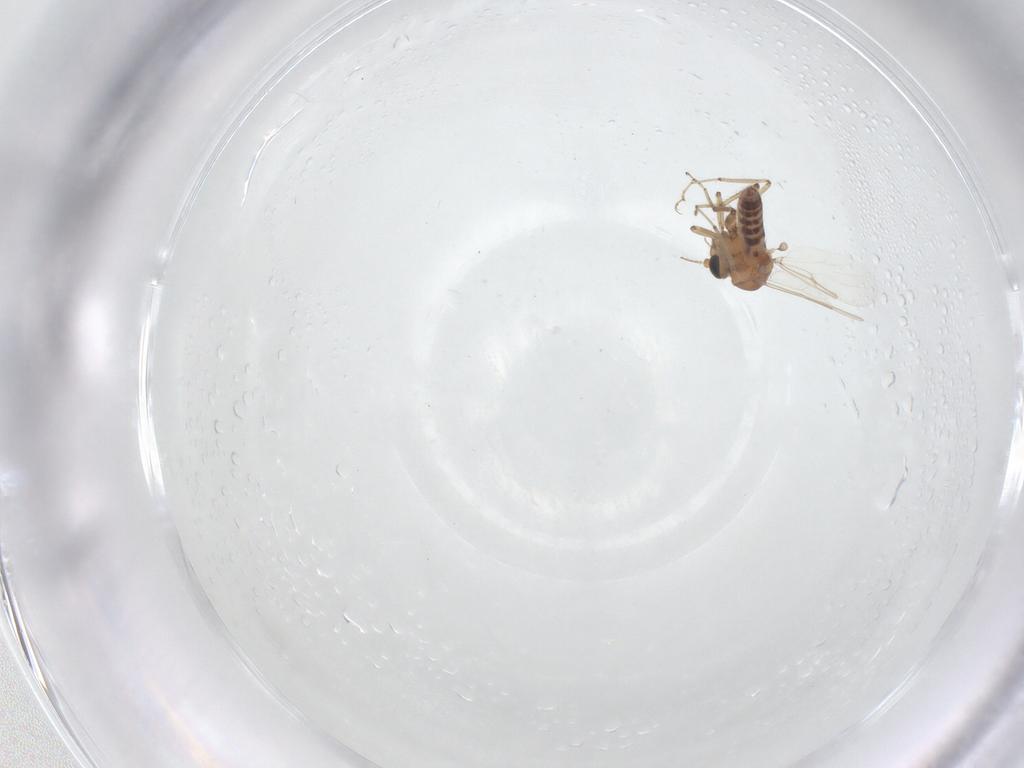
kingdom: Animalia
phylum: Arthropoda
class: Insecta
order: Diptera
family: Ceratopogonidae
